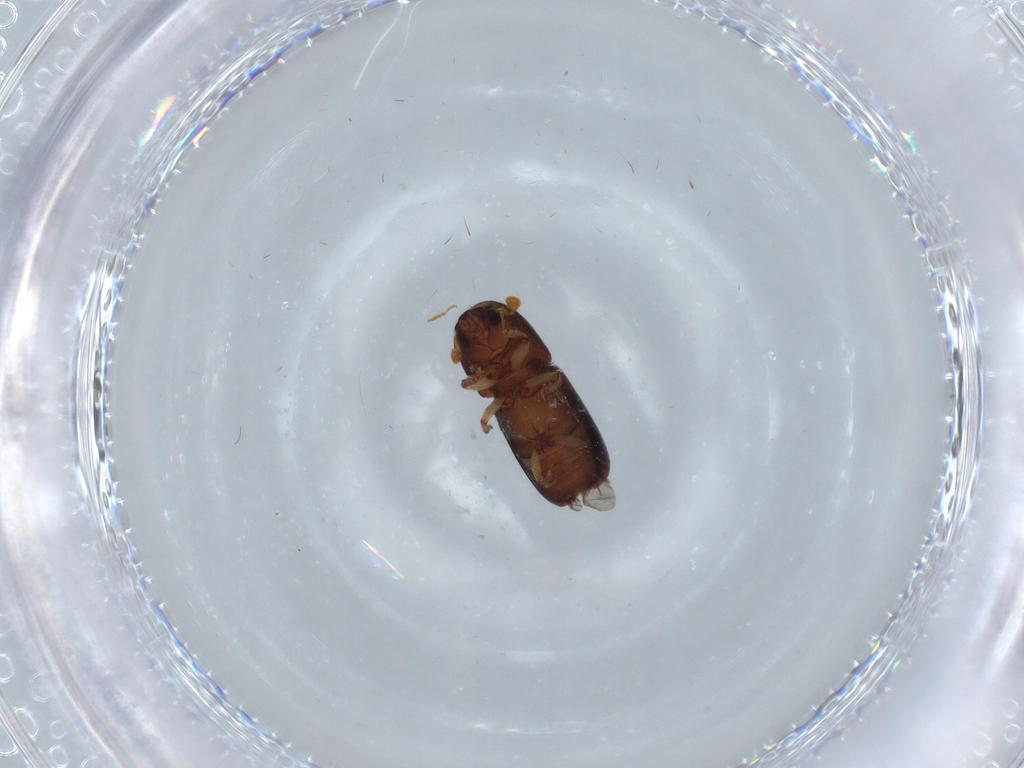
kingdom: Animalia
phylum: Arthropoda
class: Insecta
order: Coleoptera
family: Curculionidae
